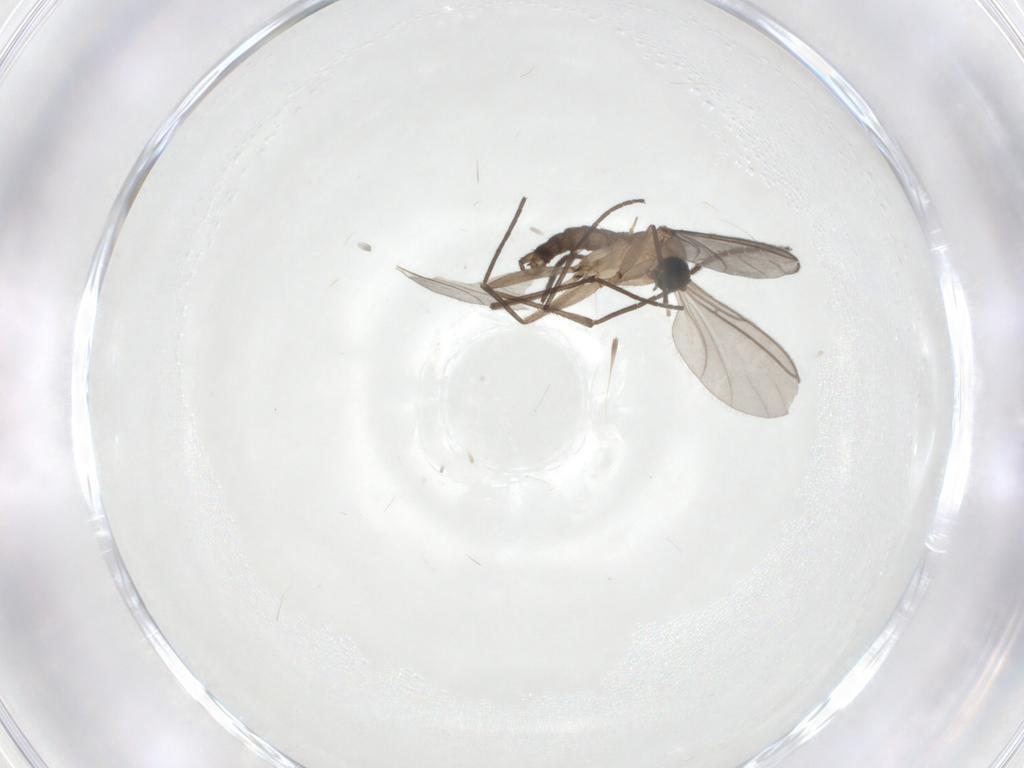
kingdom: Animalia
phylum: Arthropoda
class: Insecta
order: Diptera
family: Sciaridae
